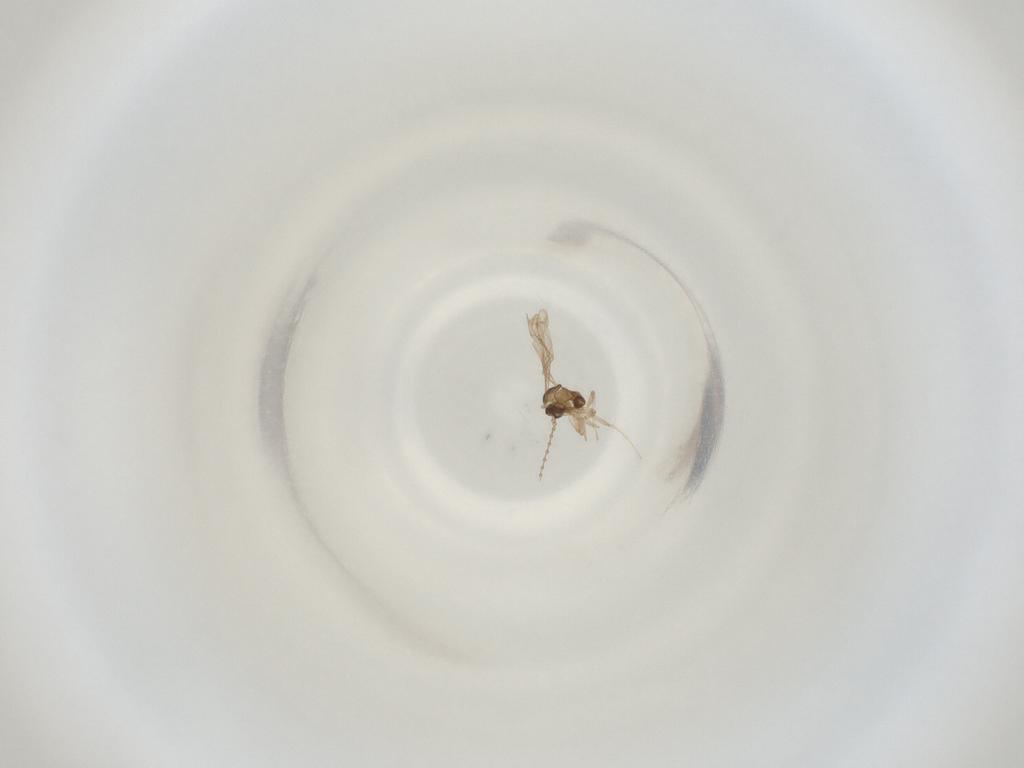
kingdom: Animalia
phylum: Arthropoda
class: Insecta
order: Diptera
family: Cecidomyiidae
